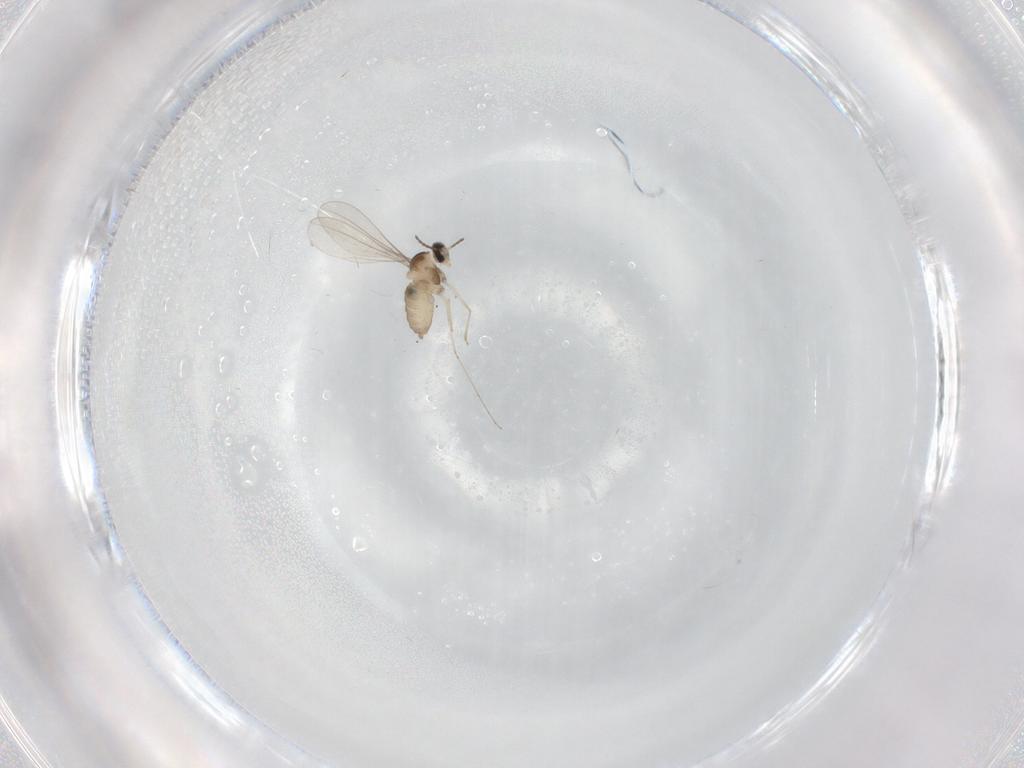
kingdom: Animalia
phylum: Arthropoda
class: Insecta
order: Diptera
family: Cecidomyiidae
